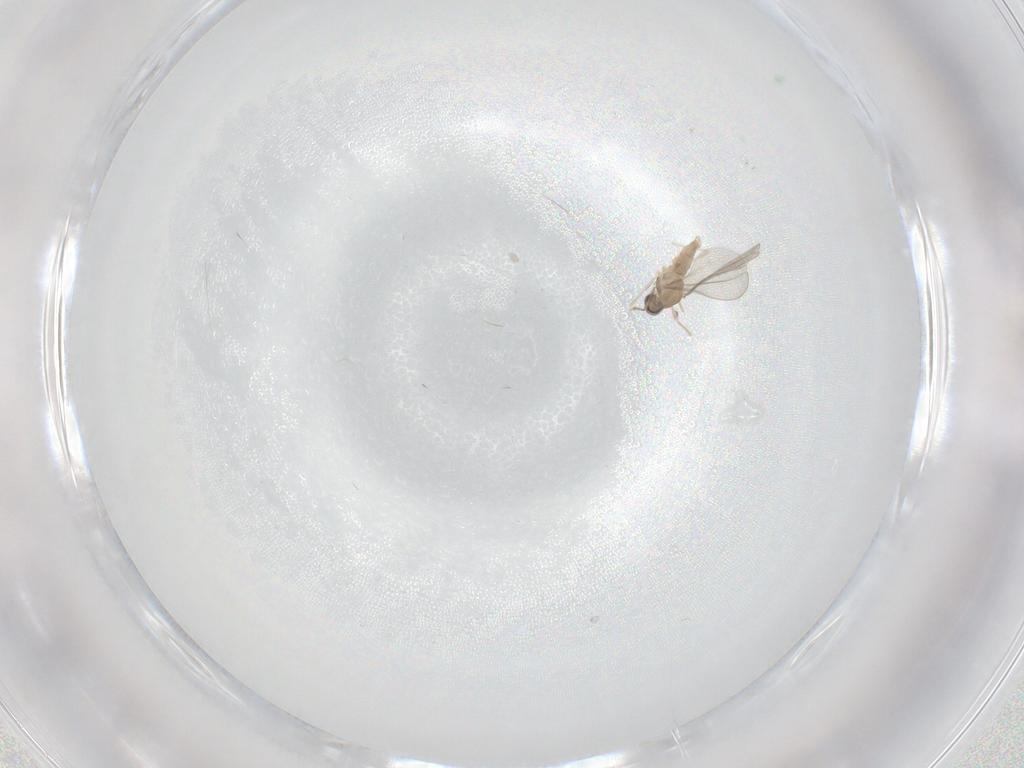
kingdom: Animalia
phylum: Arthropoda
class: Insecta
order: Diptera
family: Cecidomyiidae
